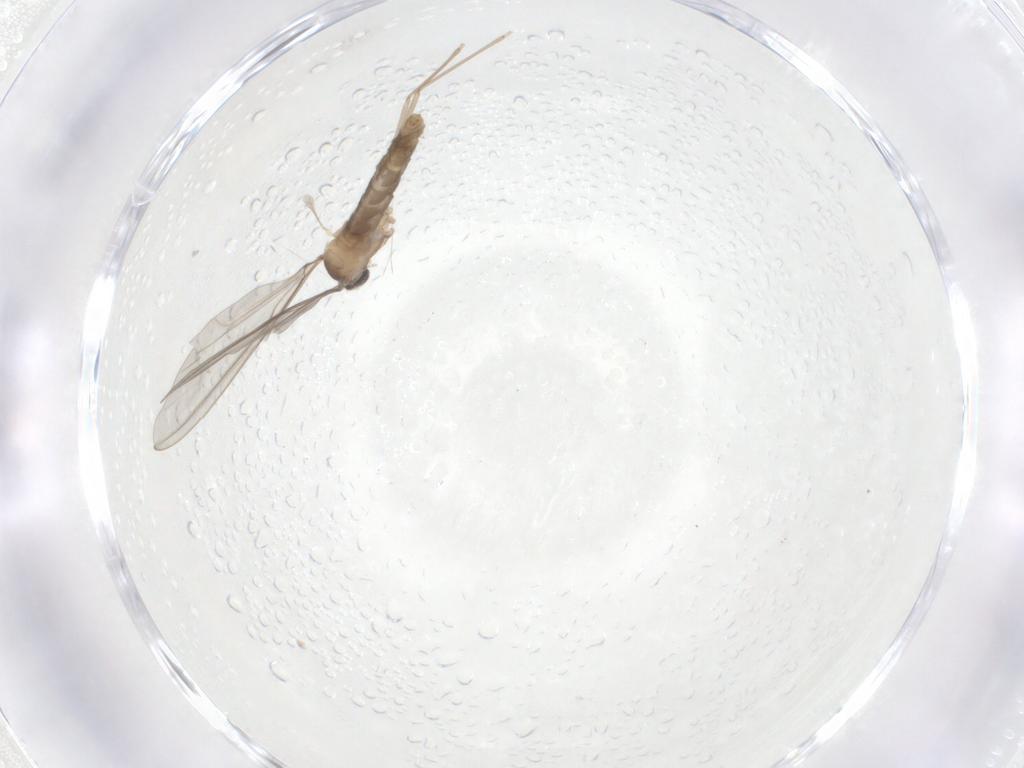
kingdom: Animalia
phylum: Arthropoda
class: Insecta
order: Diptera
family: Cecidomyiidae
